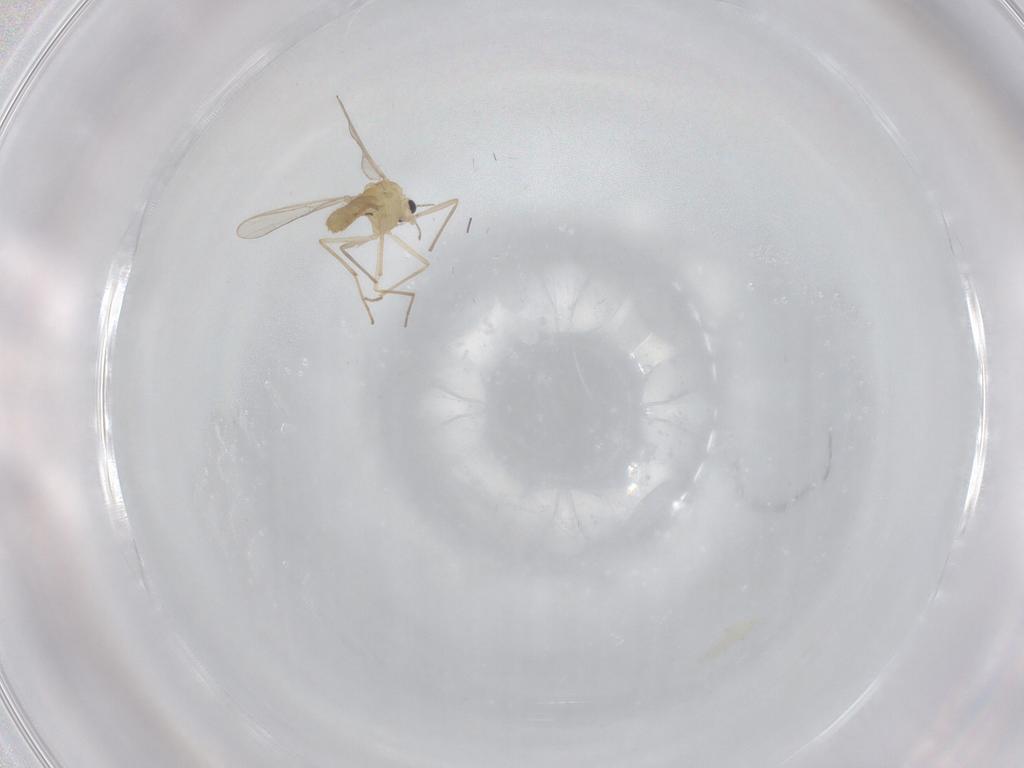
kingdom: Animalia
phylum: Arthropoda
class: Insecta
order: Diptera
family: Chironomidae
